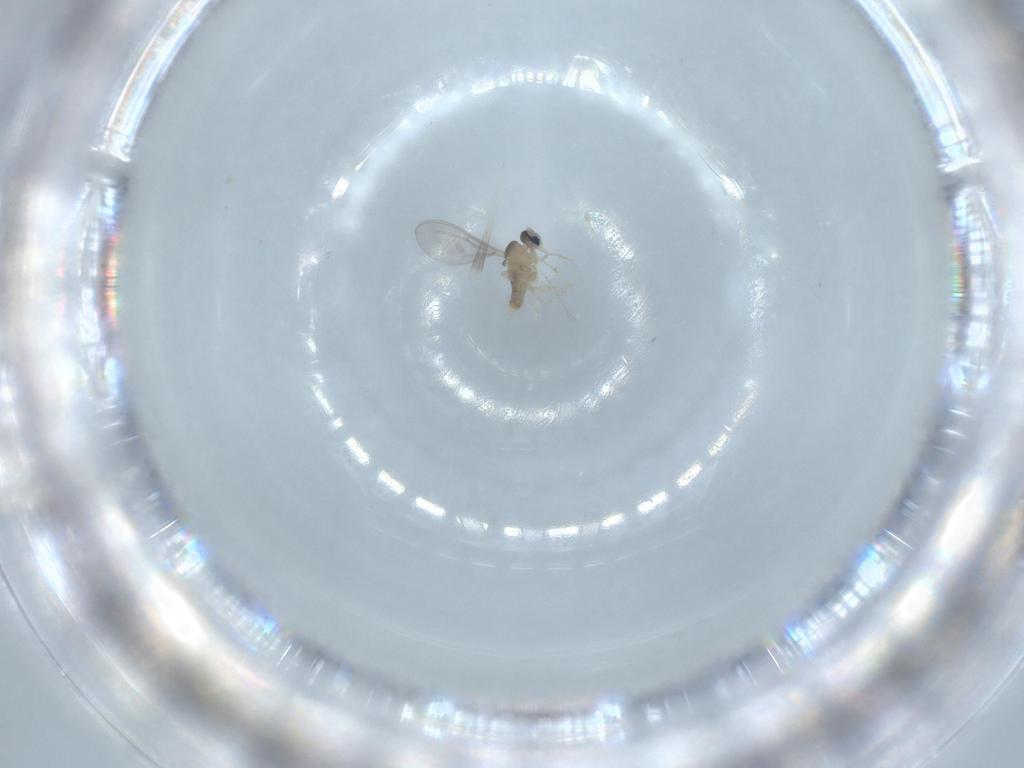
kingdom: Animalia
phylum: Arthropoda
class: Insecta
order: Diptera
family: Cecidomyiidae
